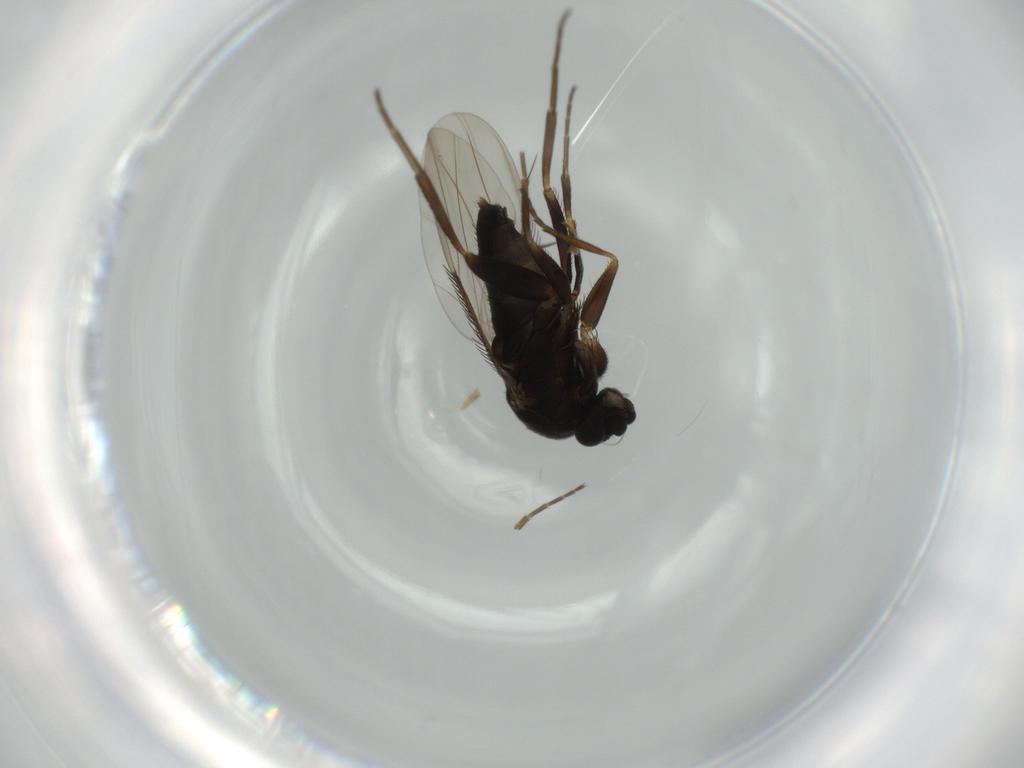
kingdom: Animalia
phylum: Arthropoda
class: Insecta
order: Diptera
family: Phoridae
